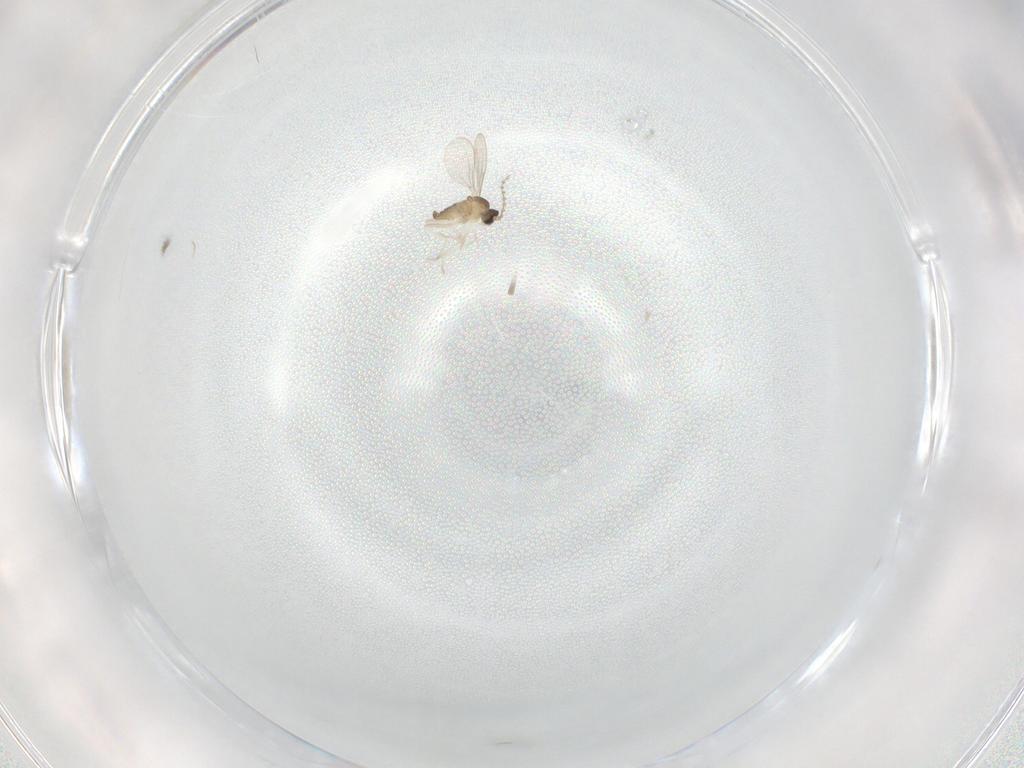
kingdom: Animalia
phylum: Arthropoda
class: Insecta
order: Diptera
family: Cecidomyiidae
